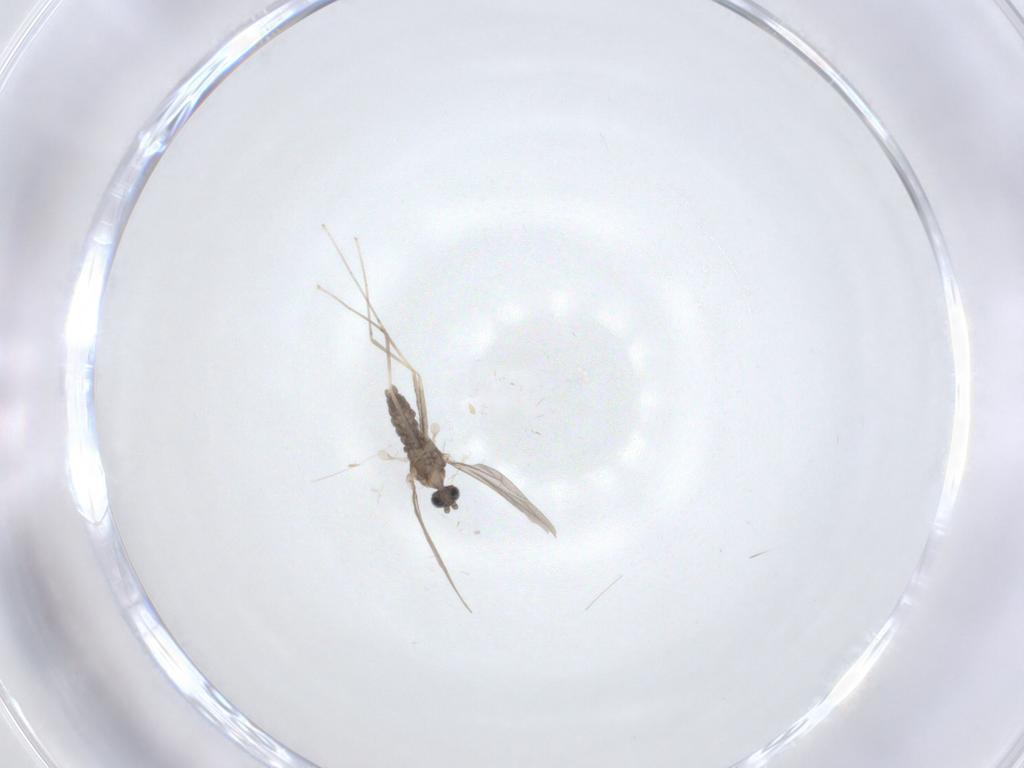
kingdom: Animalia
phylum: Arthropoda
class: Insecta
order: Diptera
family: Cecidomyiidae
